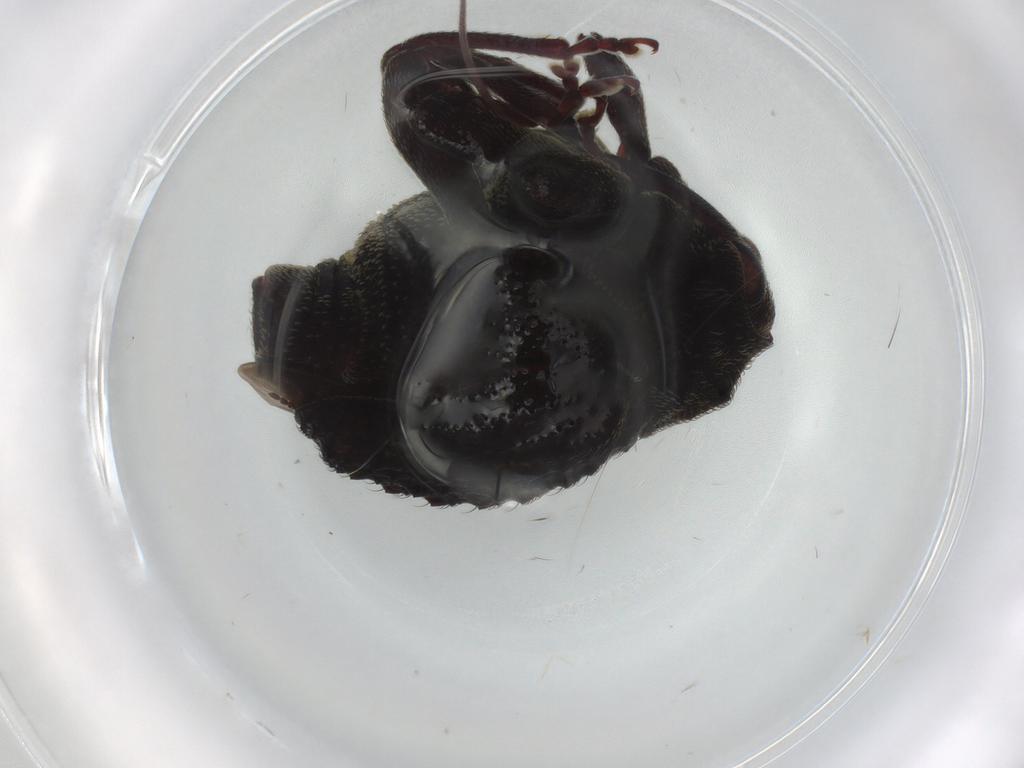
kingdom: Animalia
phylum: Arthropoda
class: Insecta
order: Coleoptera
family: Curculionidae
